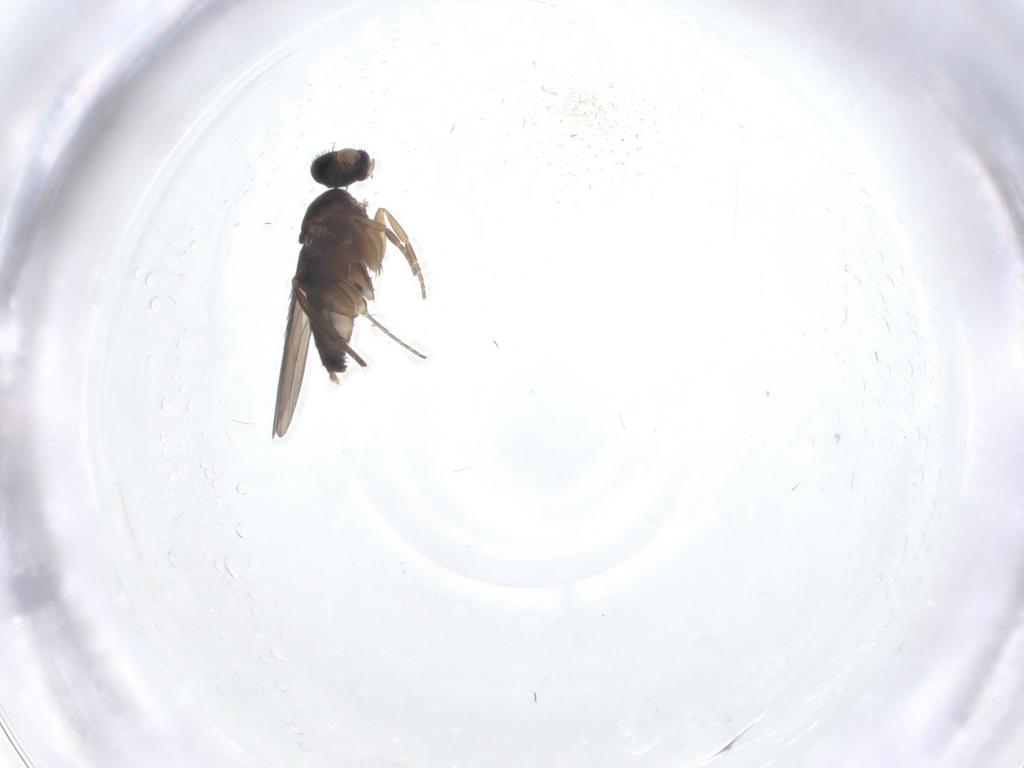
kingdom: Animalia
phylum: Arthropoda
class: Insecta
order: Diptera
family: Phoridae
